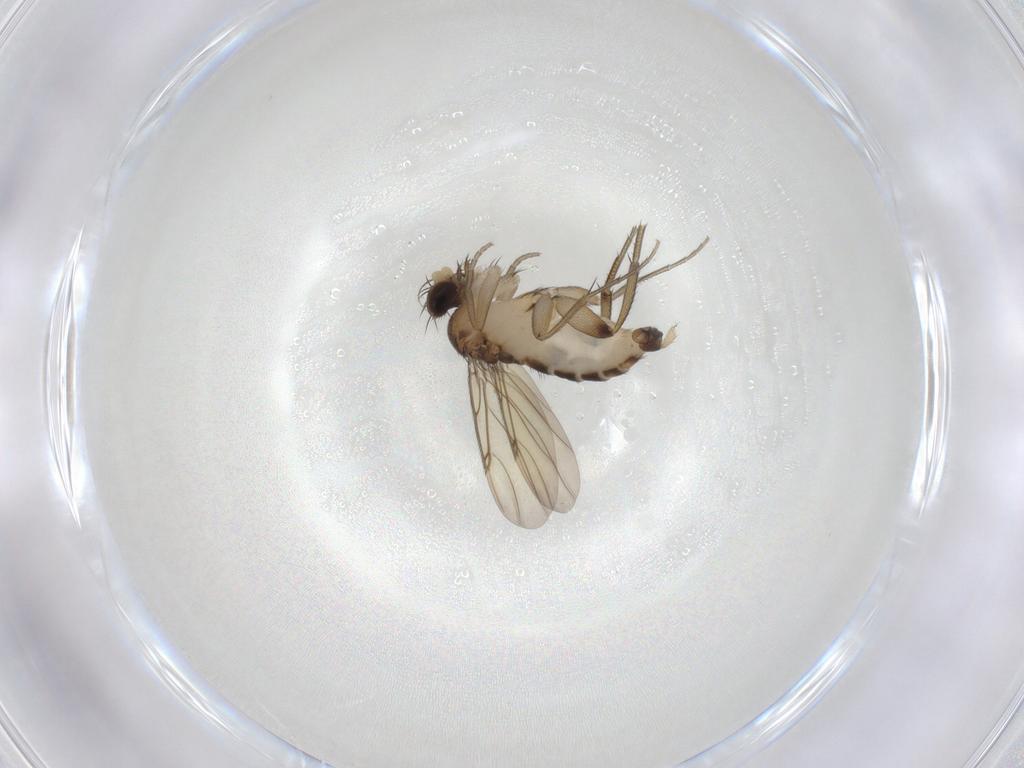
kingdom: Animalia
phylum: Arthropoda
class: Insecta
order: Diptera
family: Phoridae
